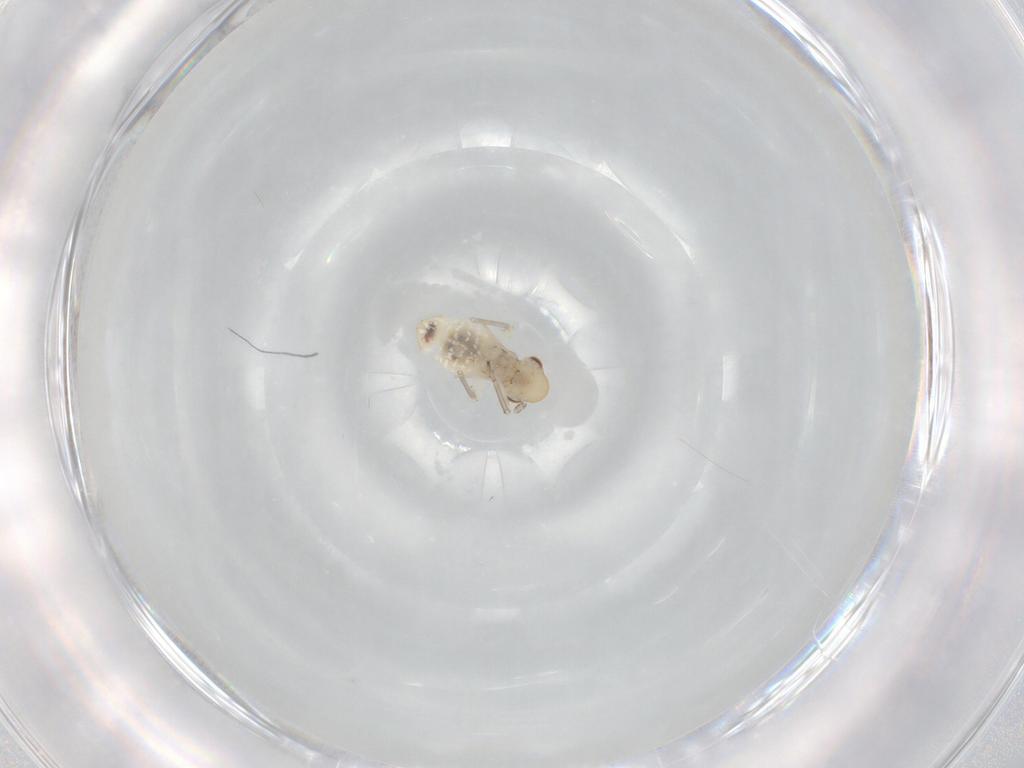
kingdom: Animalia
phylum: Arthropoda
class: Insecta
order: Psocodea
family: Caeciliusidae
